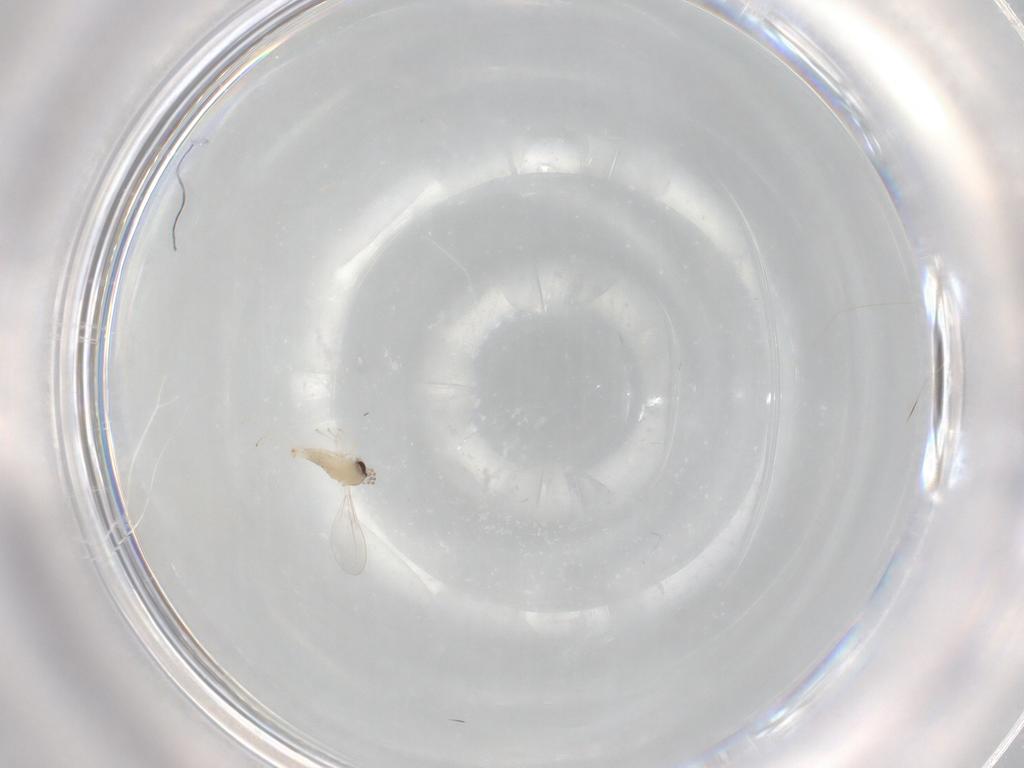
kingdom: Animalia
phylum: Arthropoda
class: Insecta
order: Diptera
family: Cecidomyiidae
